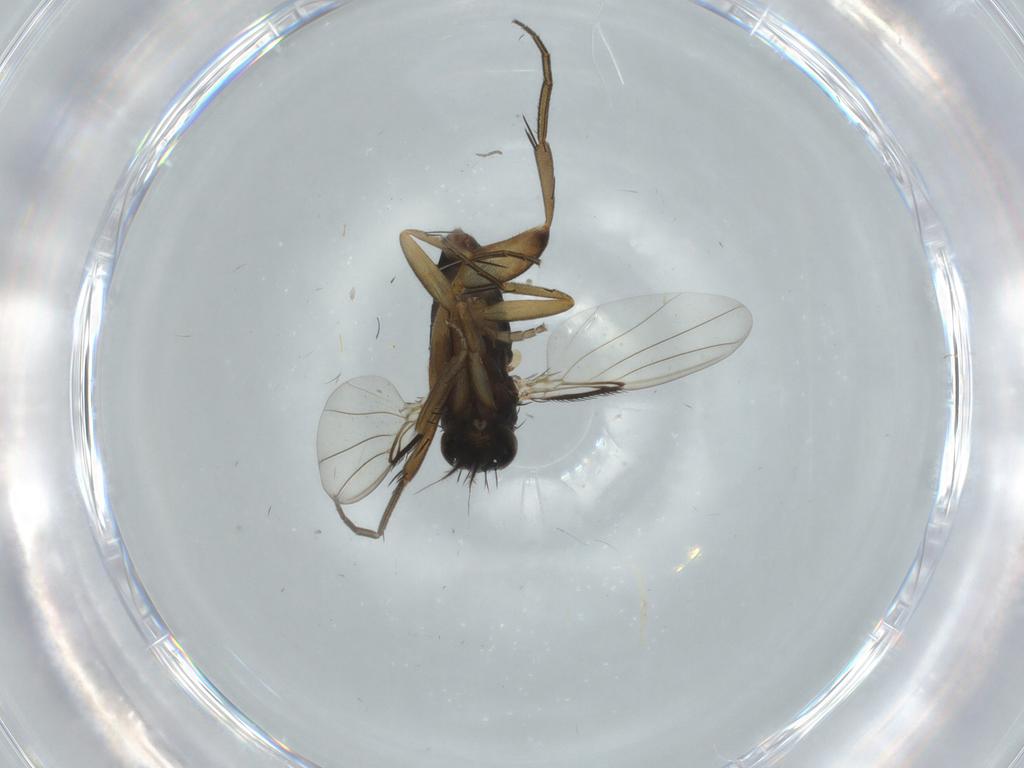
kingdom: Animalia
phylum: Arthropoda
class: Insecta
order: Diptera
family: Phoridae
